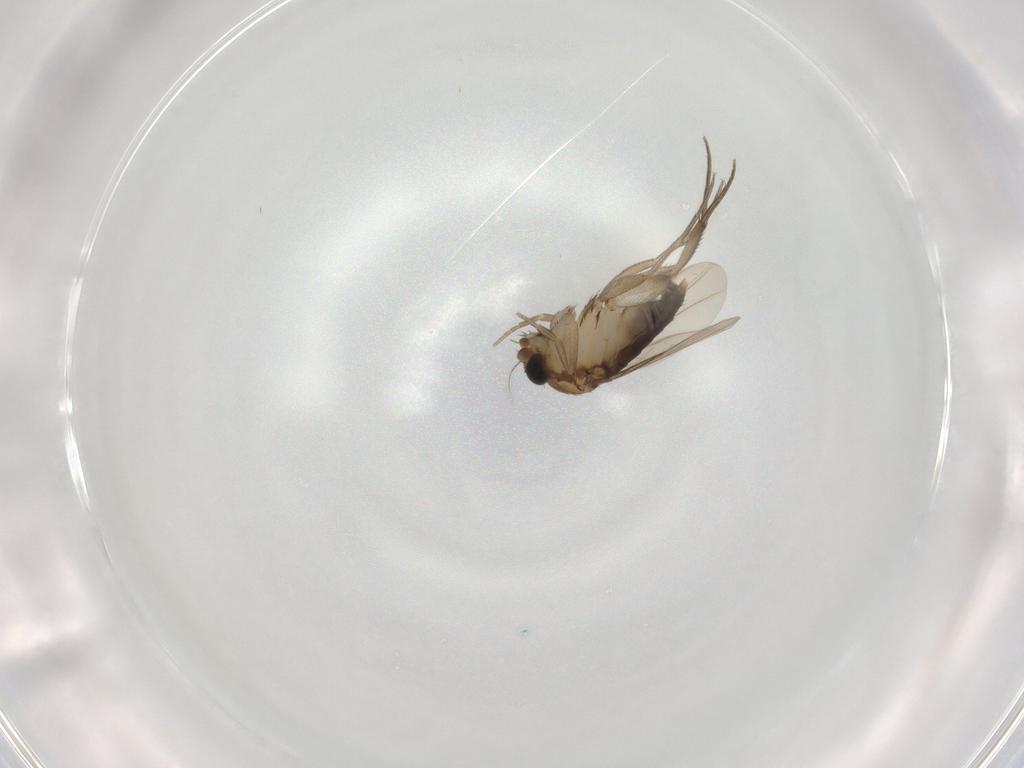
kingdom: Animalia
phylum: Arthropoda
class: Insecta
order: Diptera
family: Phoridae
